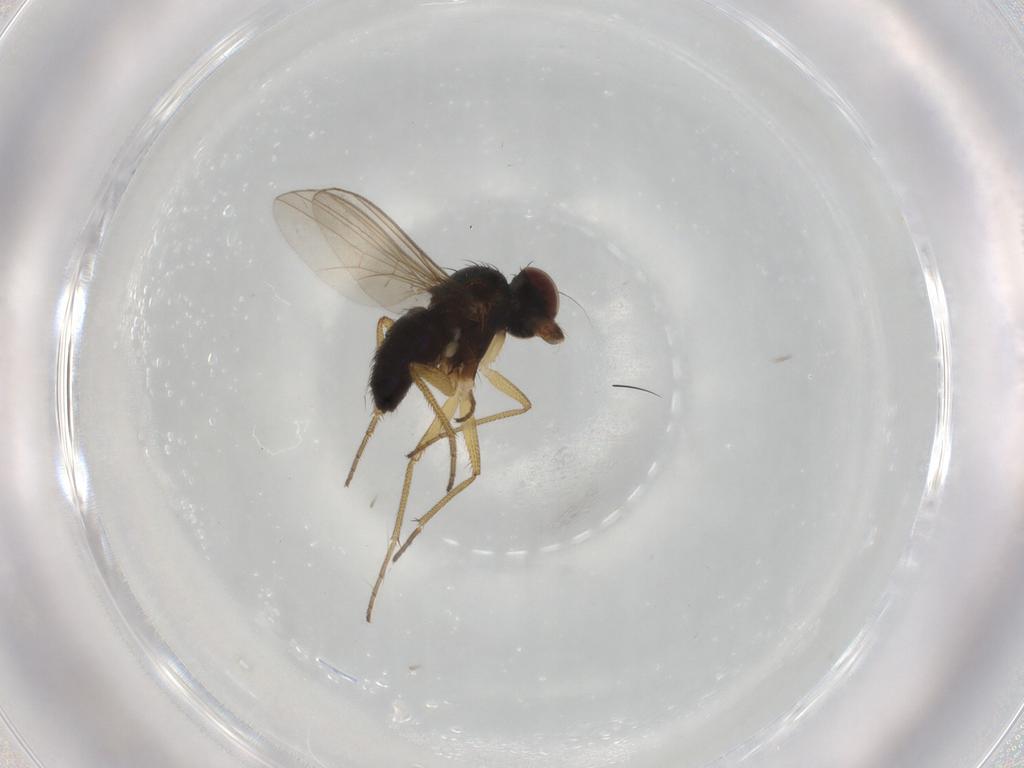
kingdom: Animalia
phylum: Arthropoda
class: Insecta
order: Diptera
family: Dolichopodidae
